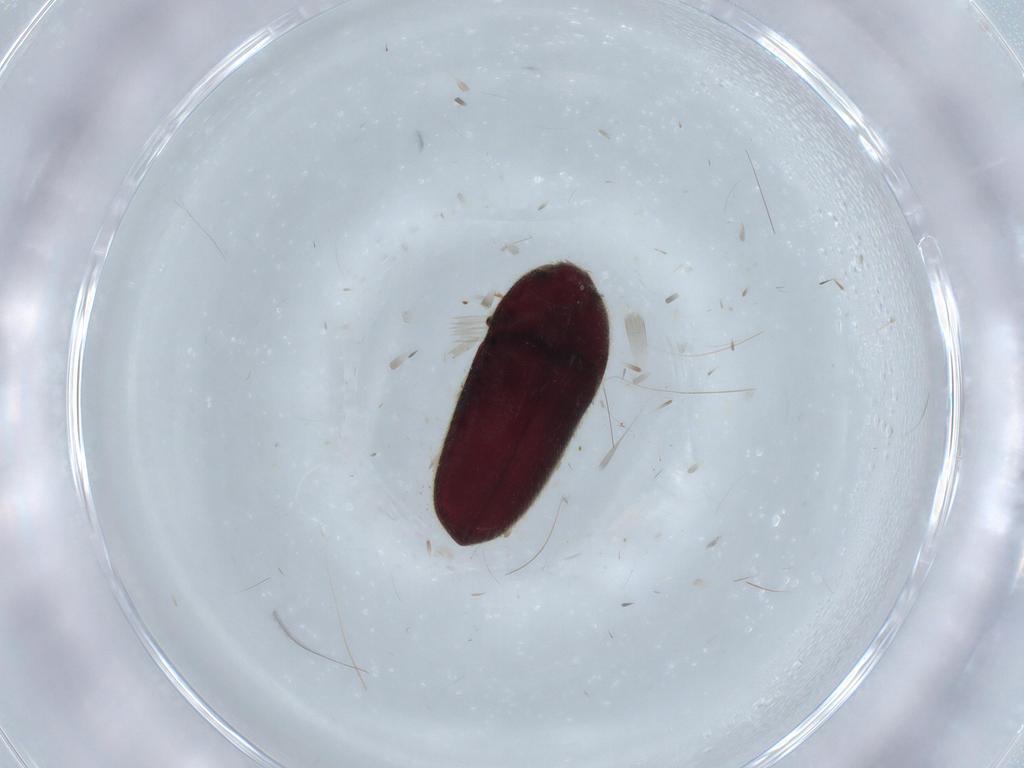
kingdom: Animalia
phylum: Arthropoda
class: Insecta
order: Coleoptera
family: Throscidae
